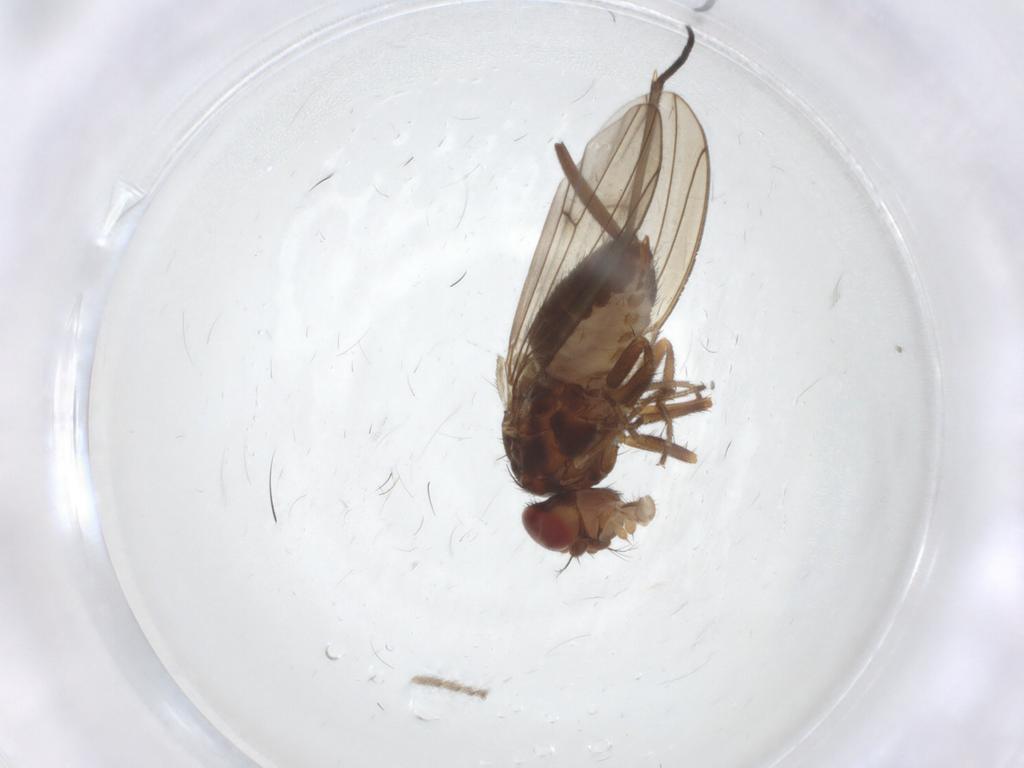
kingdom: Animalia
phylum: Arthropoda
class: Insecta
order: Diptera
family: Drosophilidae
